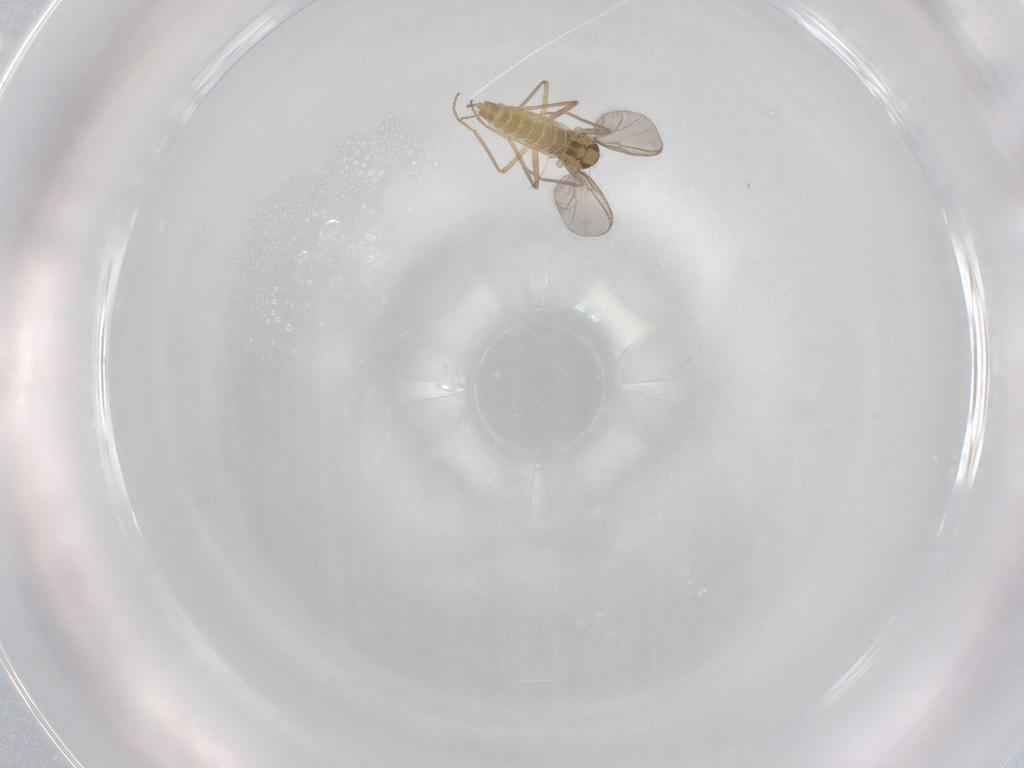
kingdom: Animalia
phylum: Arthropoda
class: Insecta
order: Diptera
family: Chironomidae
